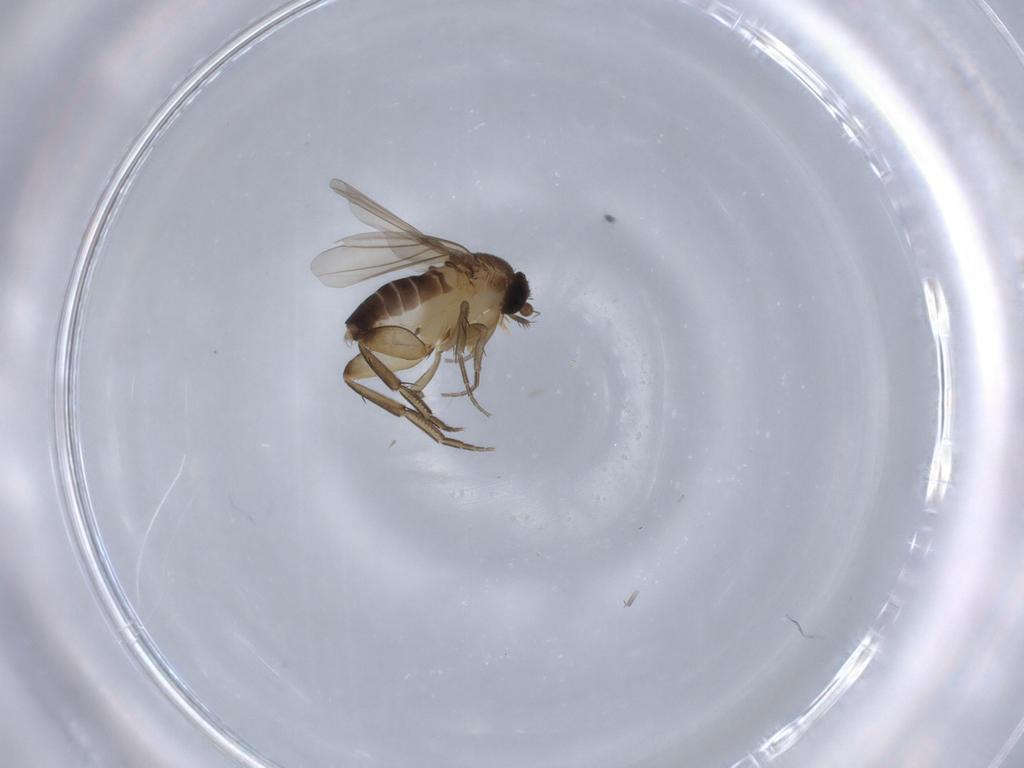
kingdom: Animalia
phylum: Arthropoda
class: Insecta
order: Diptera
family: Phoridae
